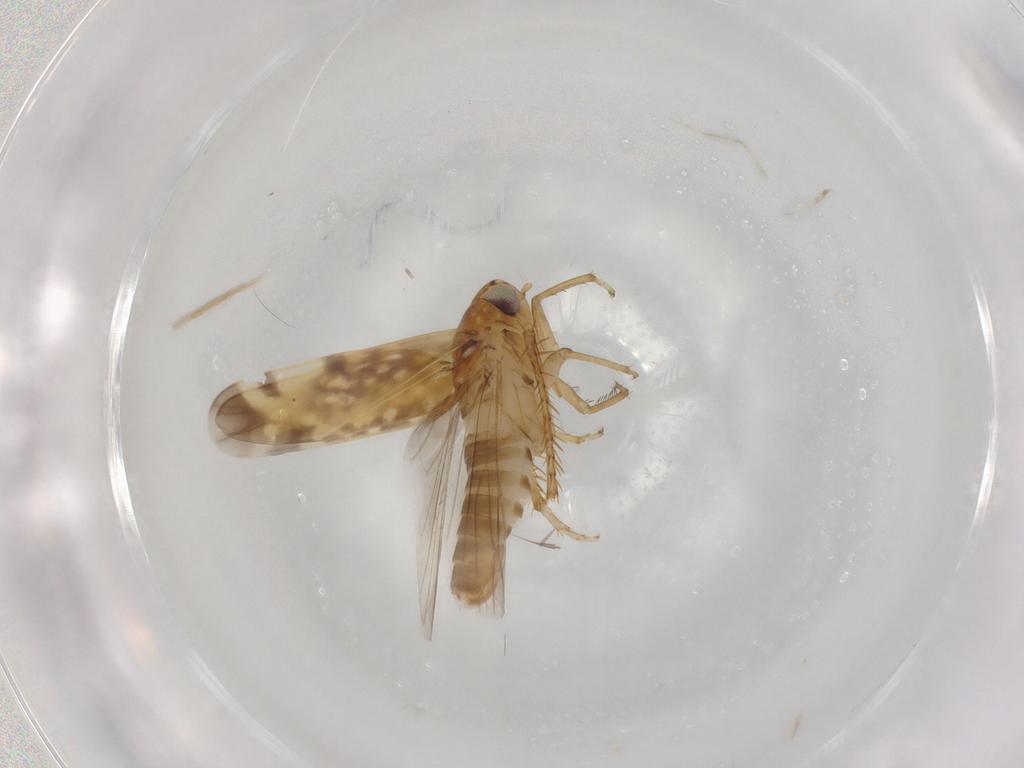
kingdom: Animalia
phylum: Arthropoda
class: Insecta
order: Hemiptera
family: Cicadellidae
